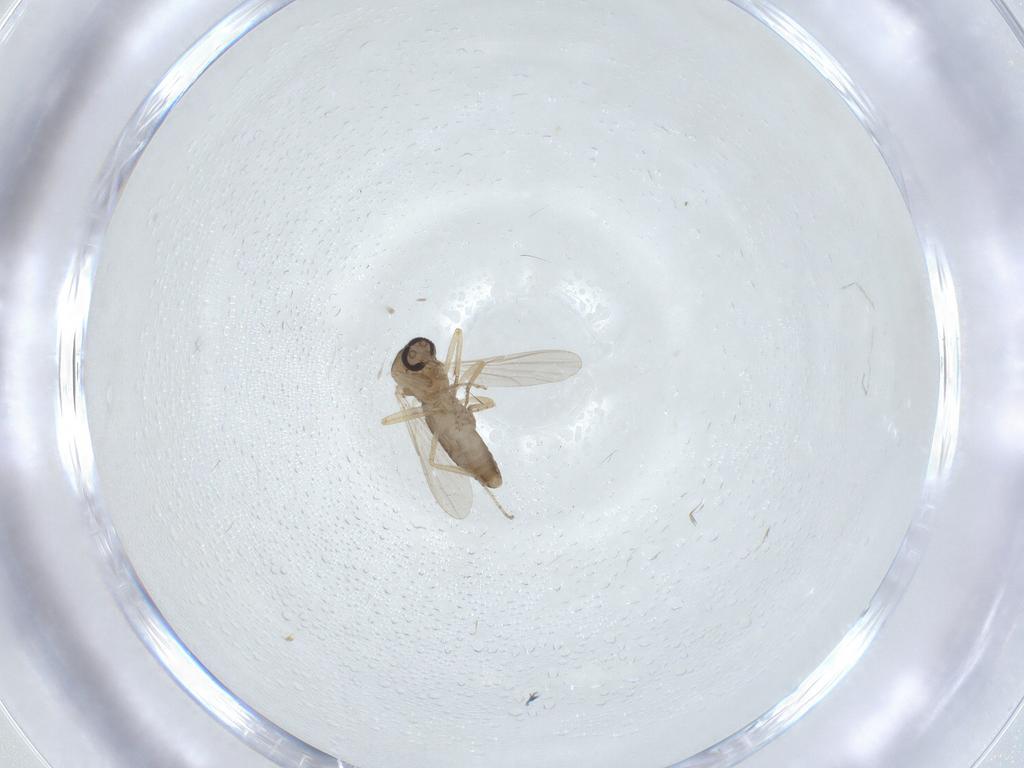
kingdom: Animalia
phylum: Arthropoda
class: Insecta
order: Diptera
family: Ceratopogonidae
